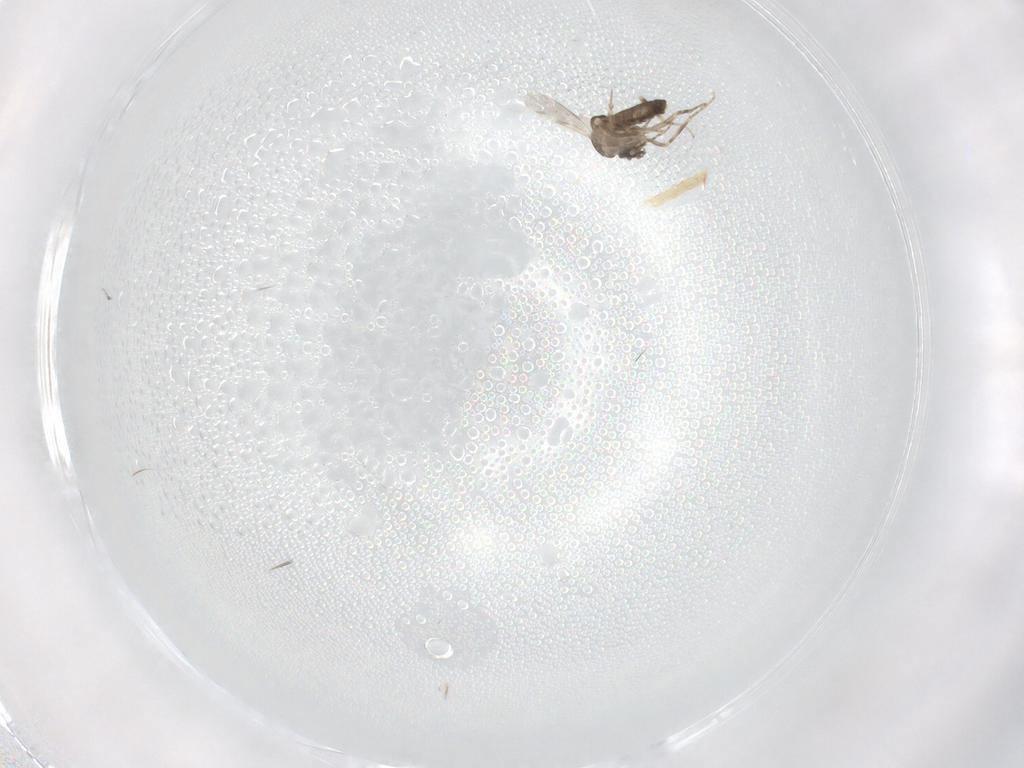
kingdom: Animalia
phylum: Arthropoda
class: Insecta
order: Diptera
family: Ceratopogonidae
